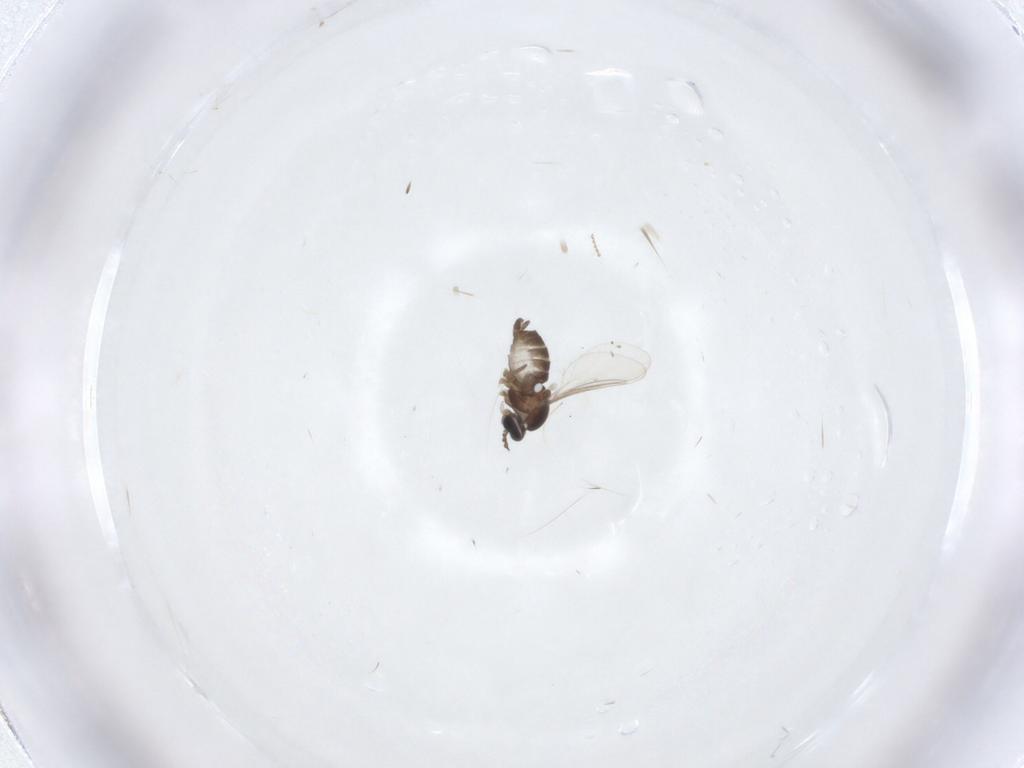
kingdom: Animalia
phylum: Arthropoda
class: Insecta
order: Diptera
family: Cecidomyiidae
